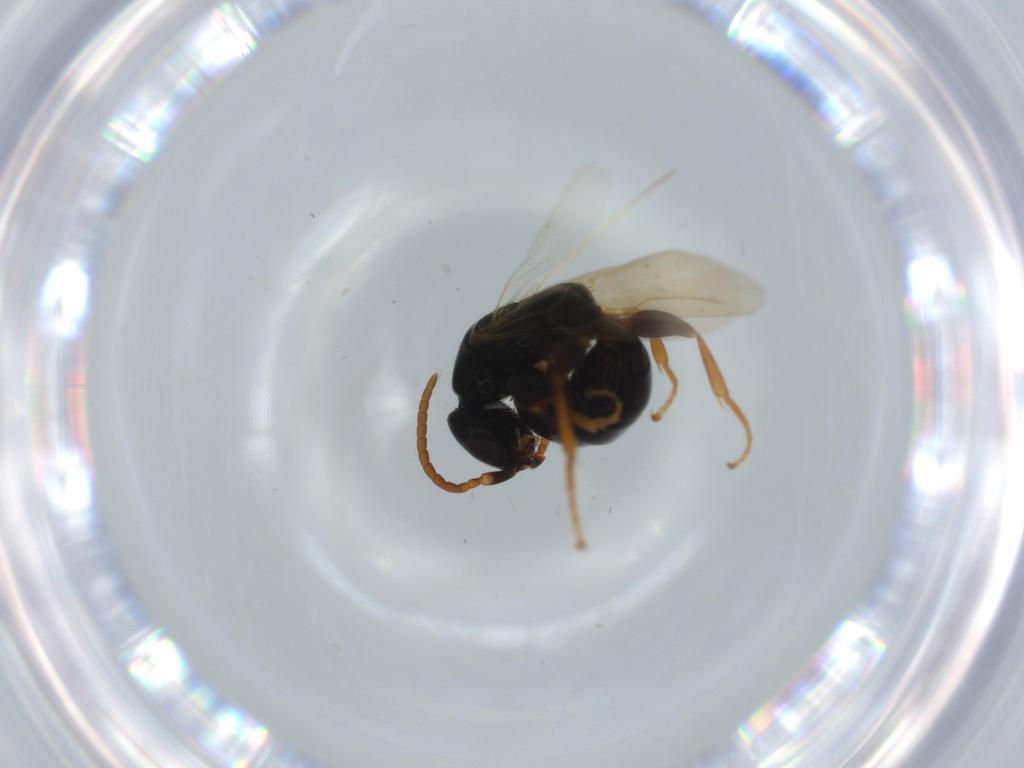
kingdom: Animalia
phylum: Arthropoda
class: Insecta
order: Hymenoptera
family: Bethylidae
